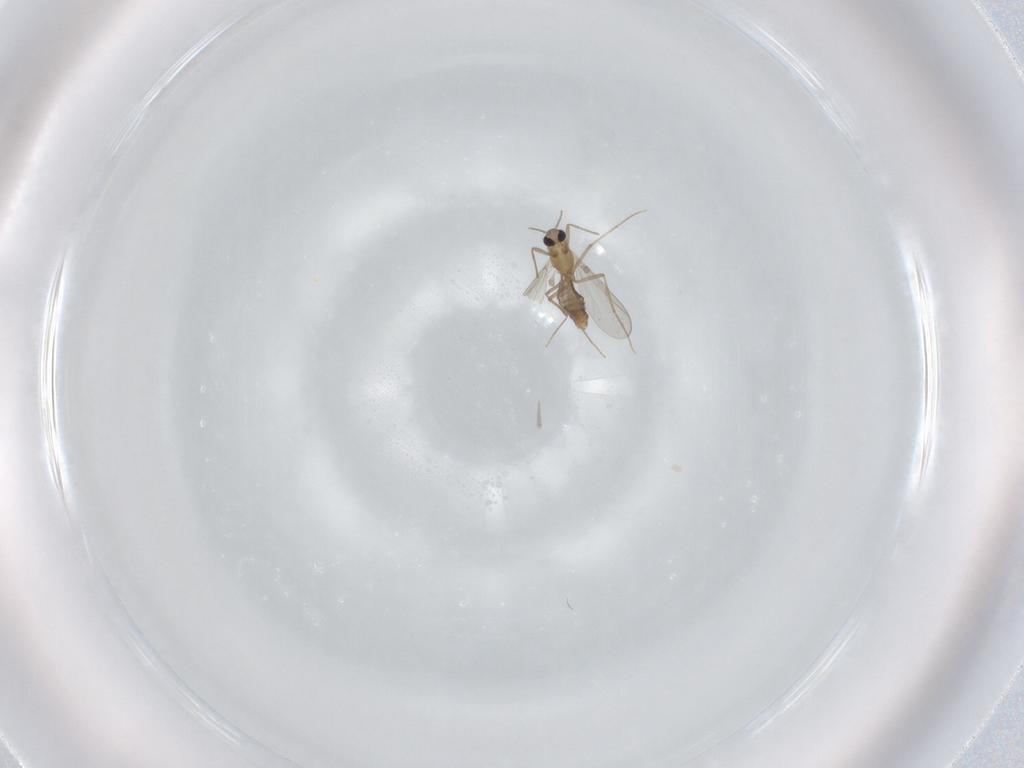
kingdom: Animalia
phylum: Arthropoda
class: Insecta
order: Diptera
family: Sciaridae
